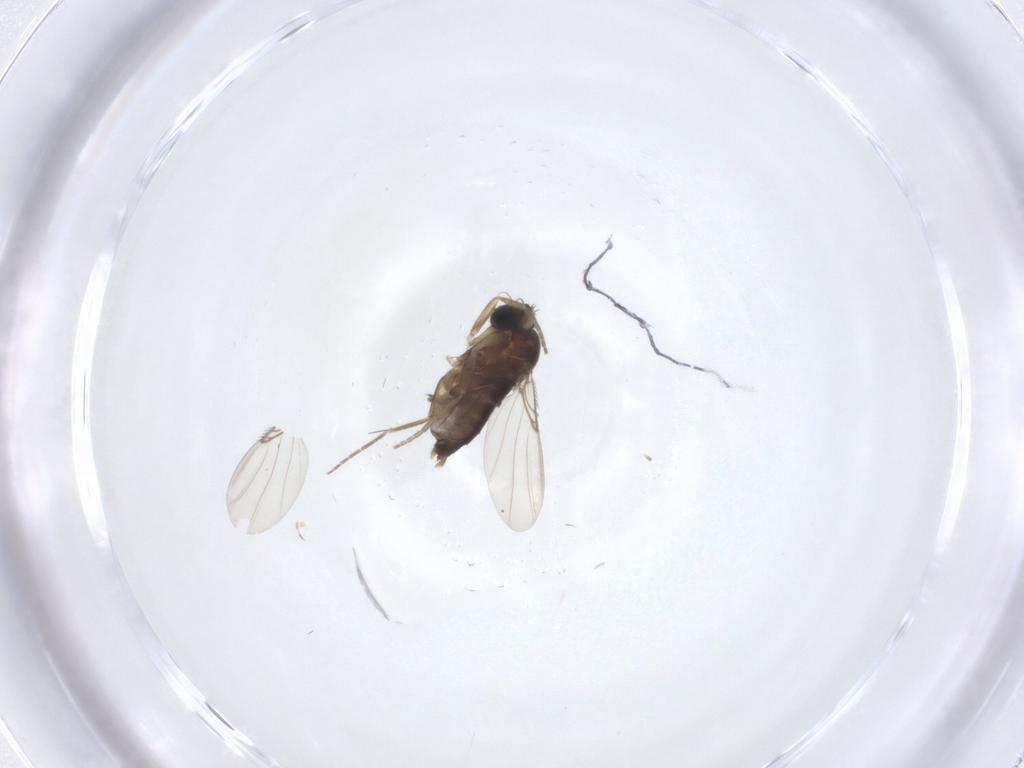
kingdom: Animalia
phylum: Arthropoda
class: Insecta
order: Diptera
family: Phoridae
